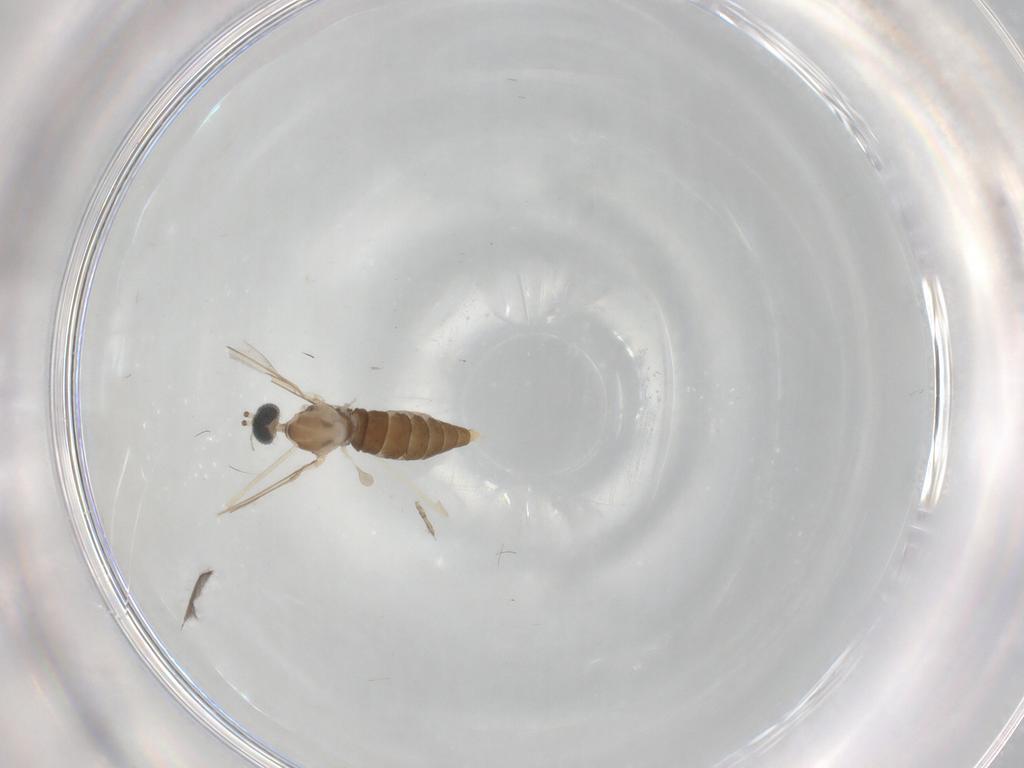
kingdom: Animalia
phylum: Arthropoda
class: Insecta
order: Diptera
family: Cecidomyiidae
